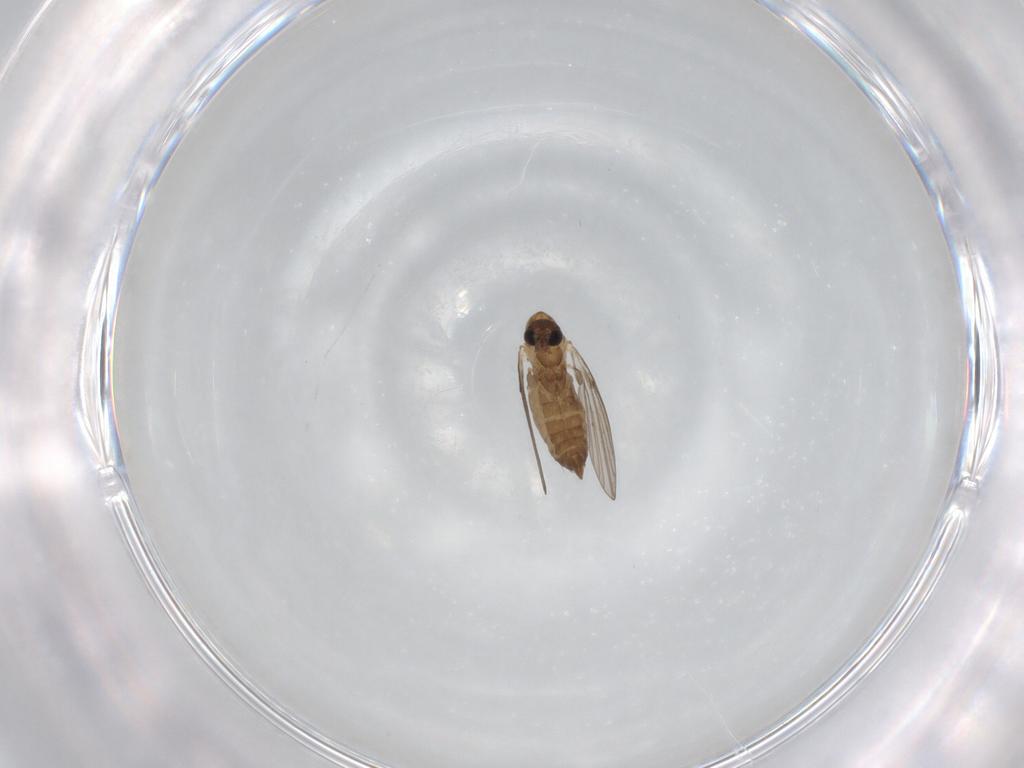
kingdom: Animalia
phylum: Arthropoda
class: Insecta
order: Diptera
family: Psychodidae
